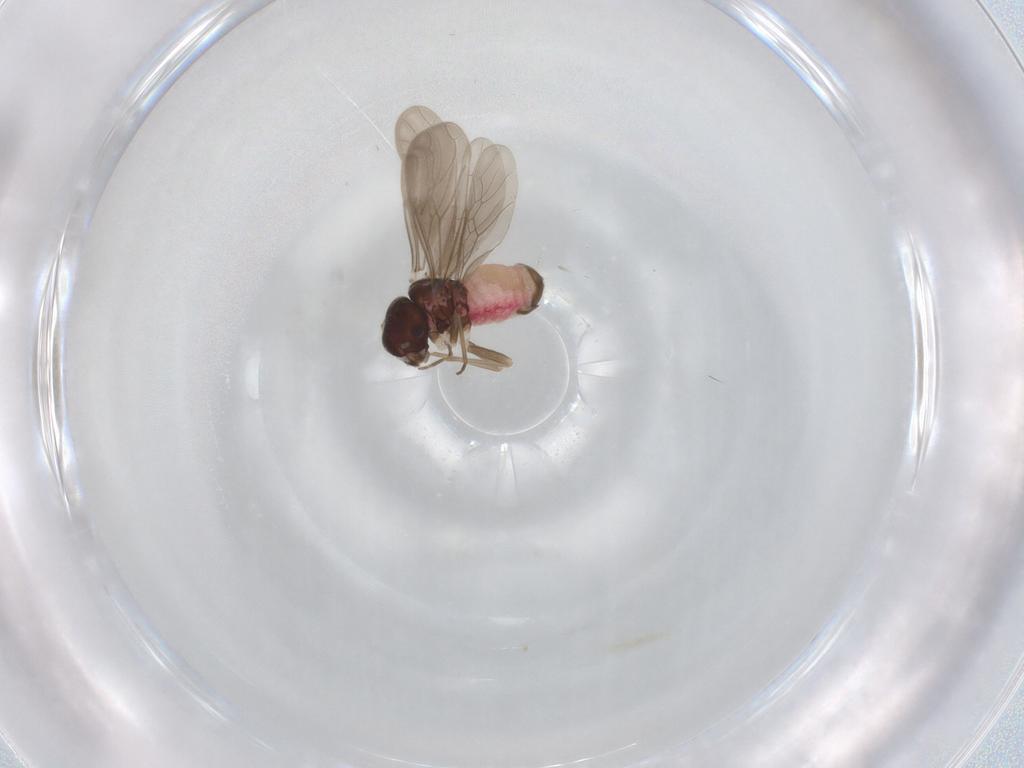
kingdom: Animalia
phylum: Arthropoda
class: Insecta
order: Psocodea
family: Archipsocidae
